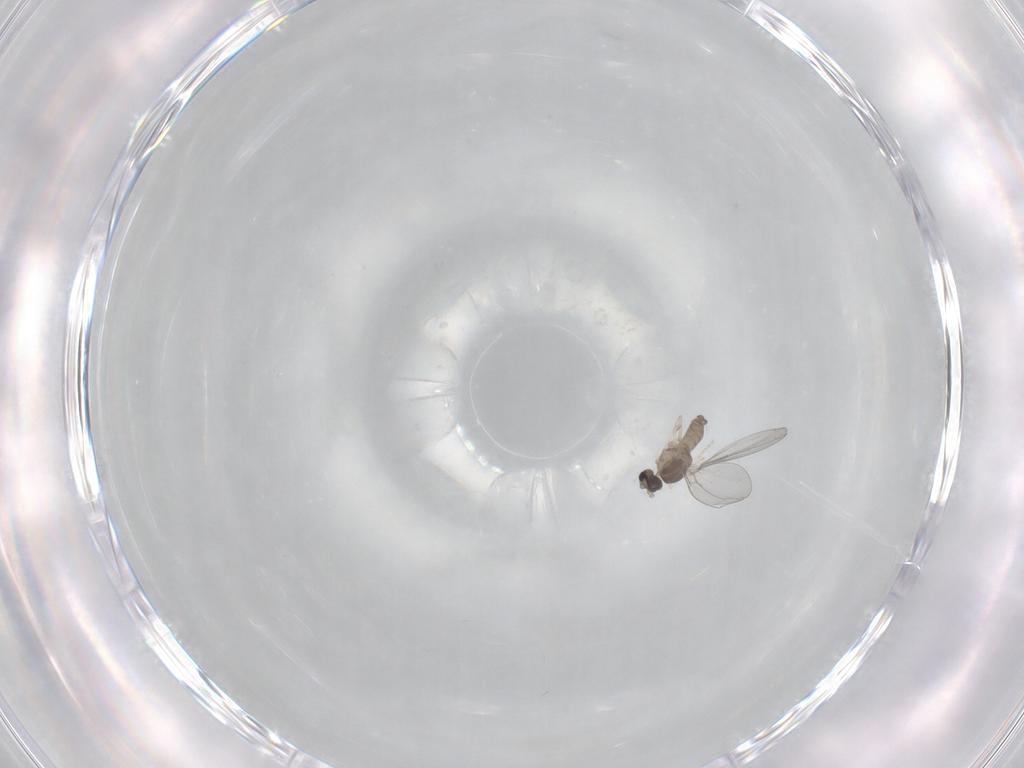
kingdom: Animalia
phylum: Arthropoda
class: Insecta
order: Diptera
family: Cecidomyiidae
